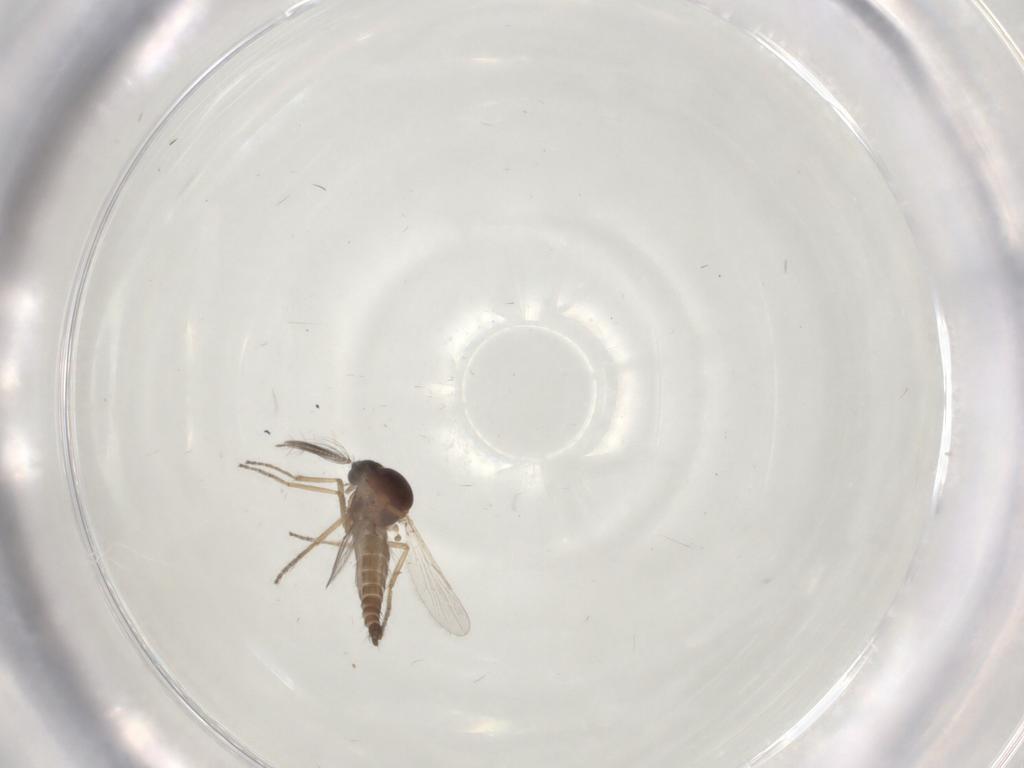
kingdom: Animalia
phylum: Arthropoda
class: Insecta
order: Diptera
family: Ceratopogonidae
